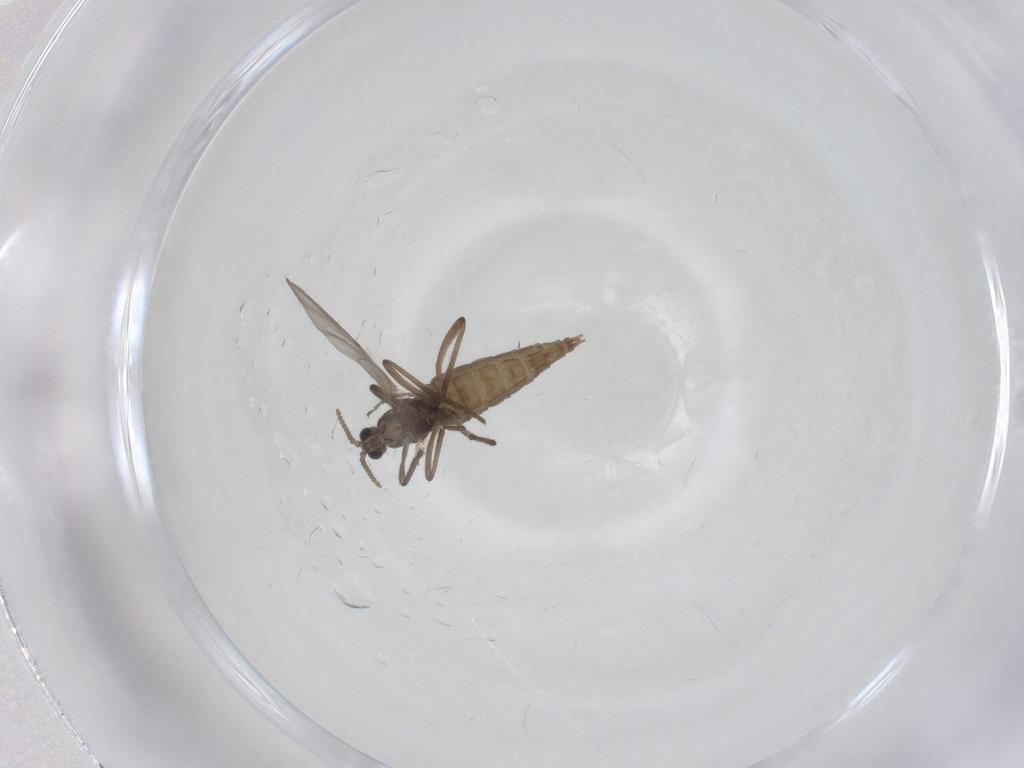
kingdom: Animalia
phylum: Arthropoda
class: Insecta
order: Diptera
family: Cecidomyiidae
